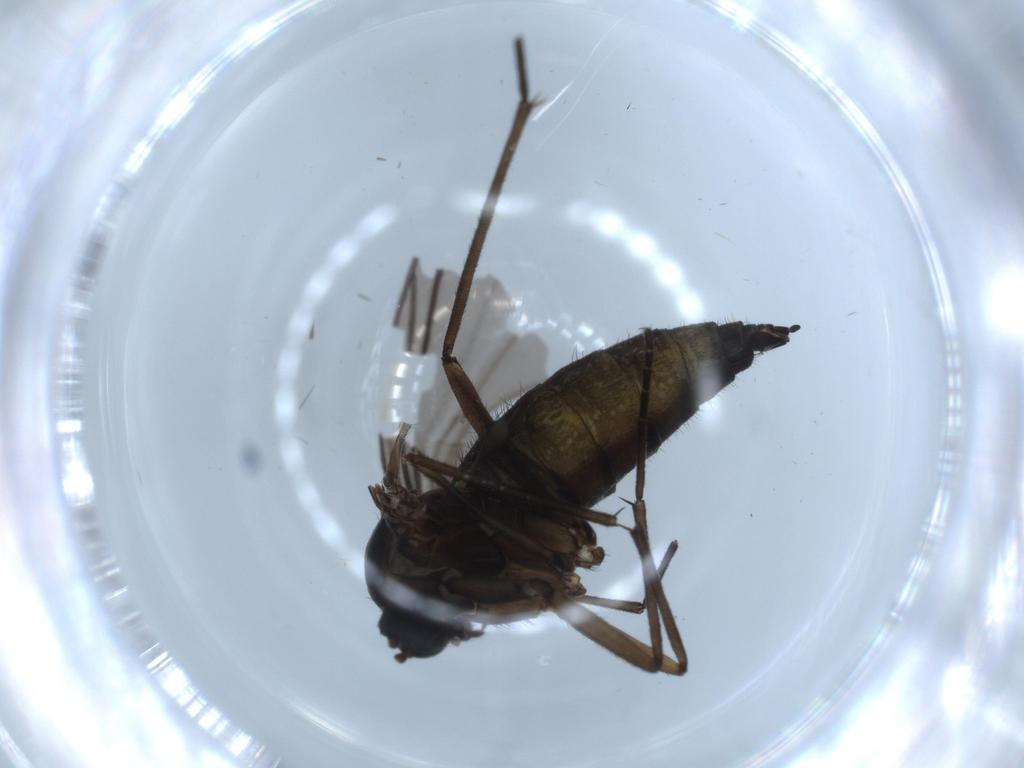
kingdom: Animalia
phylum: Arthropoda
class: Insecta
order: Diptera
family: Sciaridae
